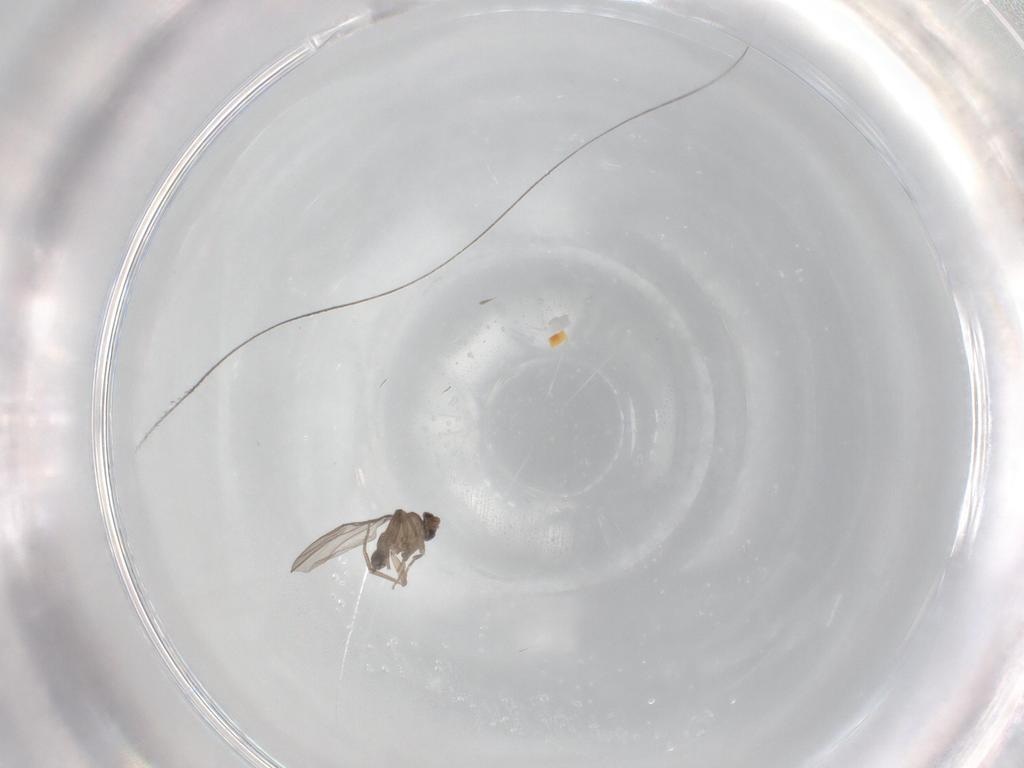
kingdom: Animalia
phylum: Arthropoda
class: Insecta
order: Diptera
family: Phoridae
